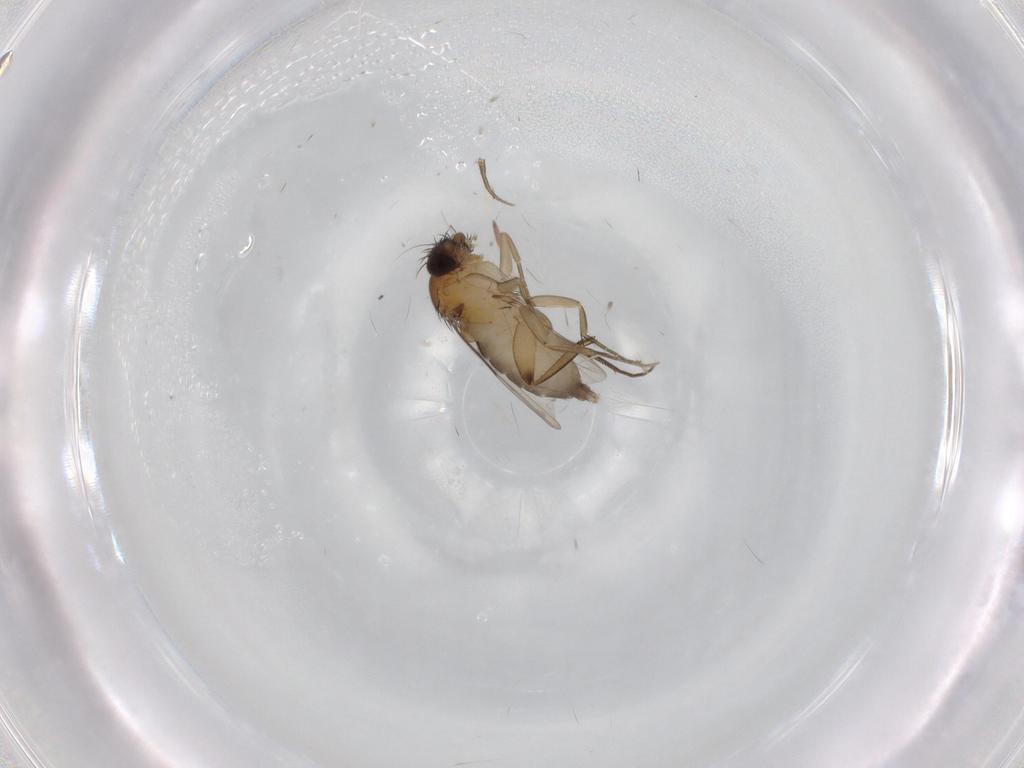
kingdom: Animalia
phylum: Arthropoda
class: Insecta
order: Diptera
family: Phoridae
